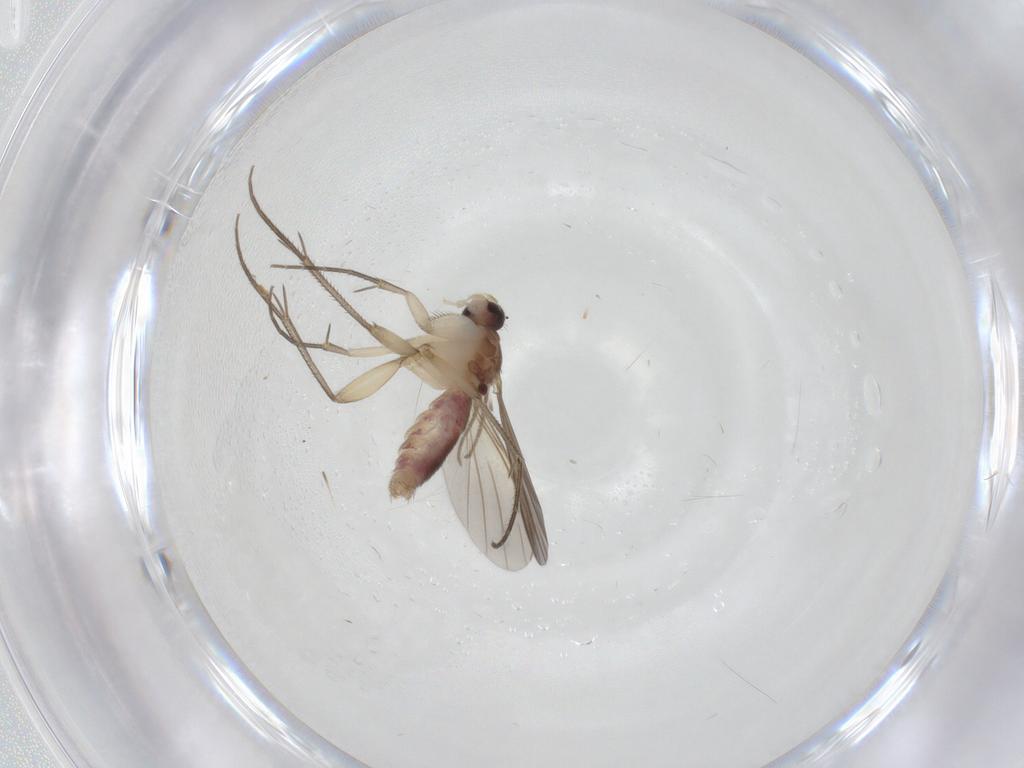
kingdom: Animalia
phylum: Arthropoda
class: Insecta
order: Diptera
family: Mycetophilidae
